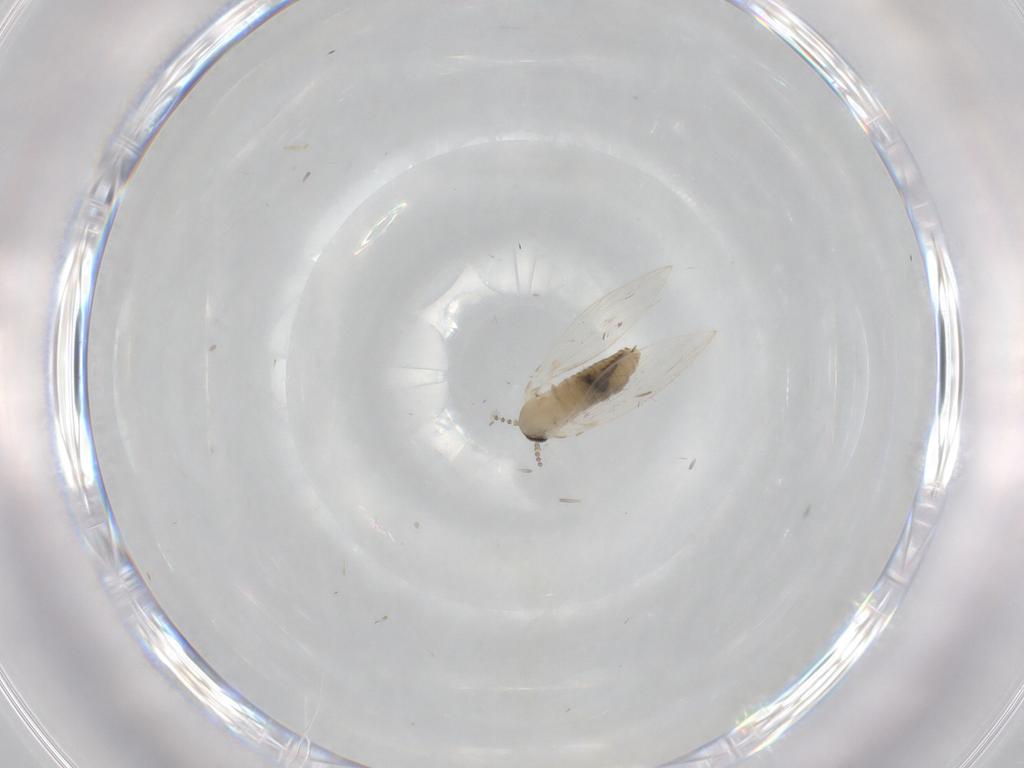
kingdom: Animalia
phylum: Arthropoda
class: Insecta
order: Diptera
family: Psychodidae
